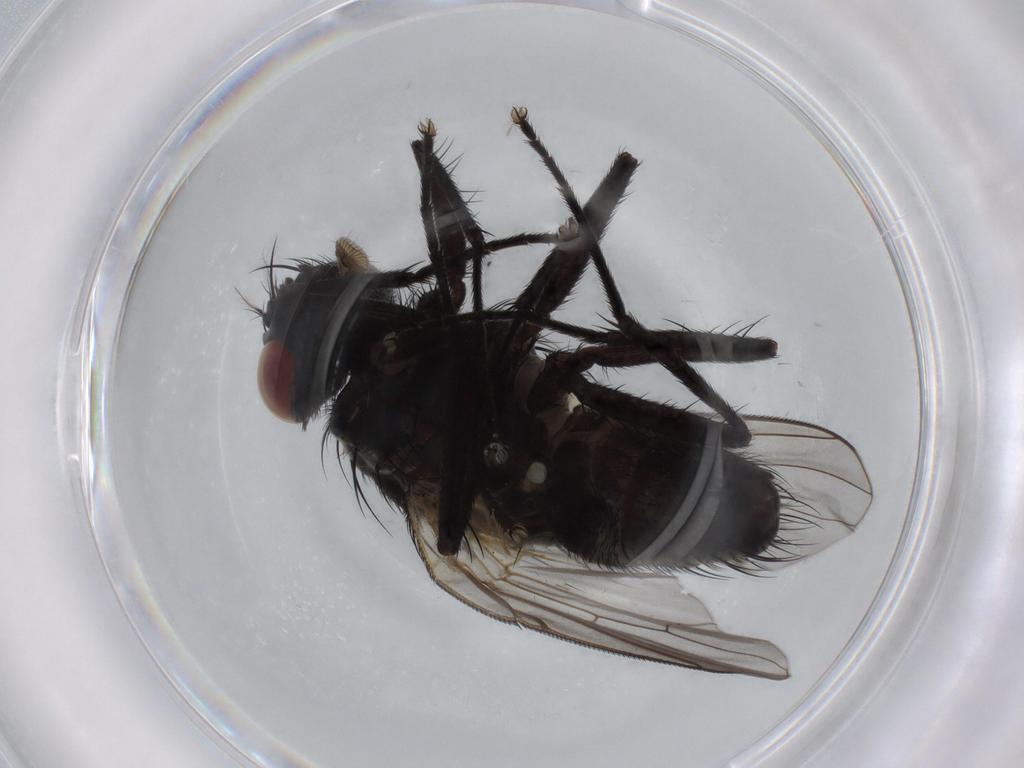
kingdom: Animalia
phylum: Arthropoda
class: Insecta
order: Diptera
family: Muscidae
